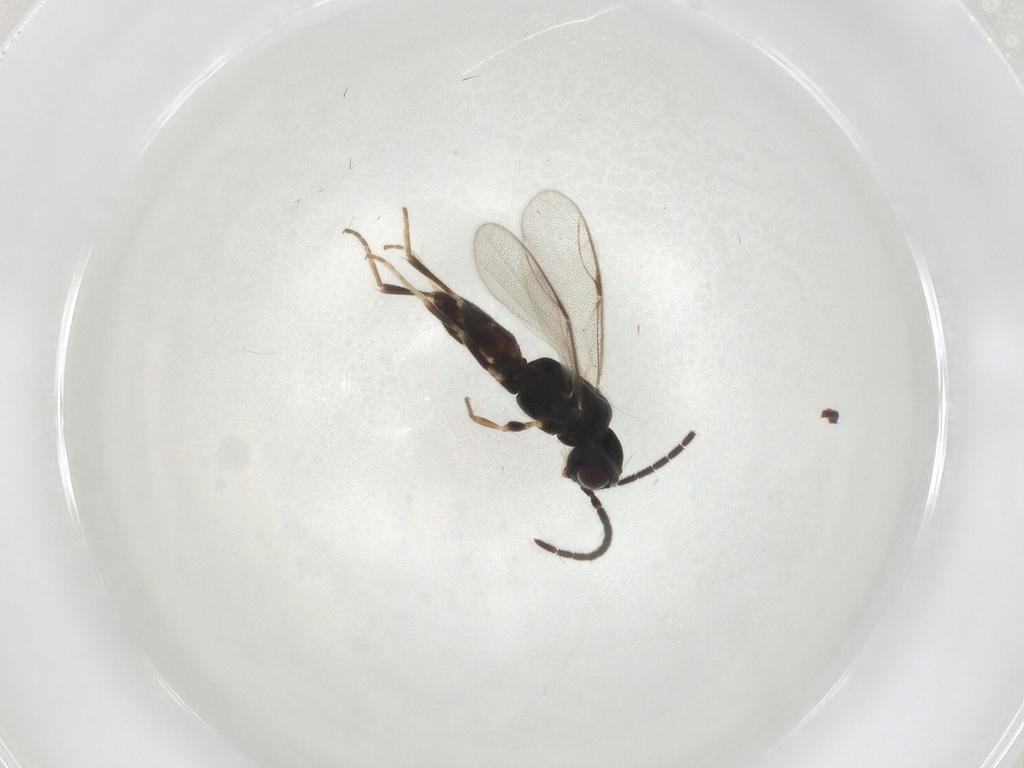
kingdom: Animalia
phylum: Arthropoda
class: Insecta
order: Hymenoptera
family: Dryinidae
